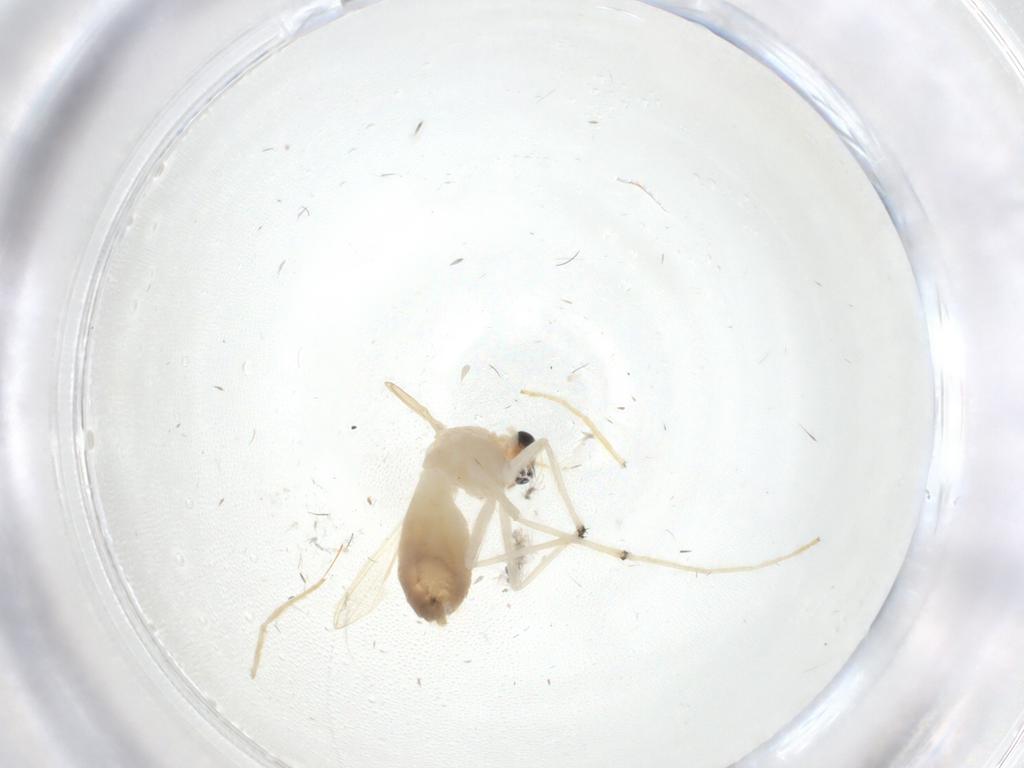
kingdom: Animalia
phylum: Arthropoda
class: Insecta
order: Diptera
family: Chironomidae
